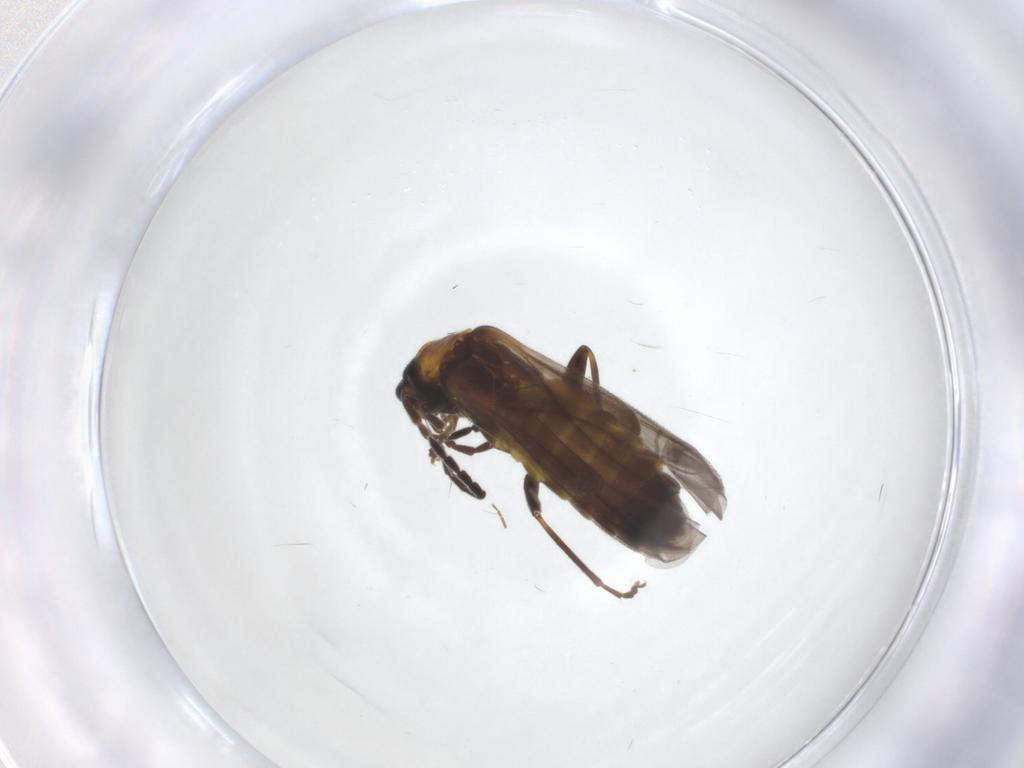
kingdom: Animalia
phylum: Arthropoda
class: Insecta
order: Coleoptera
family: Cantharidae
